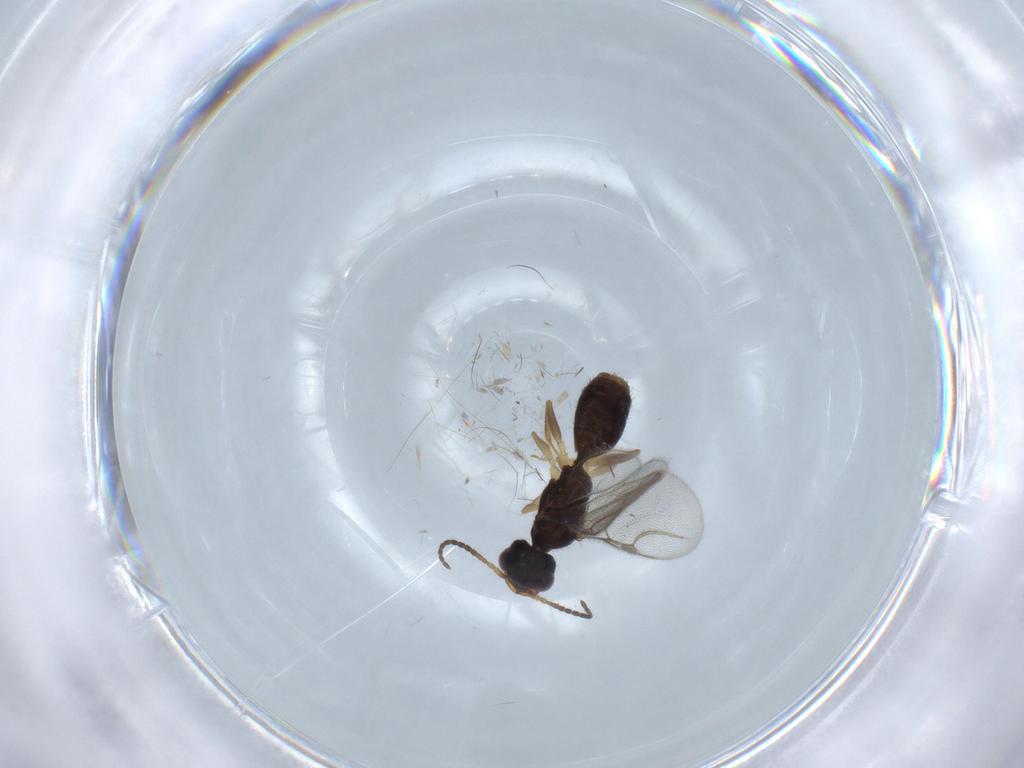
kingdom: Animalia
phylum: Arthropoda
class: Insecta
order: Hymenoptera
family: Bethylidae
